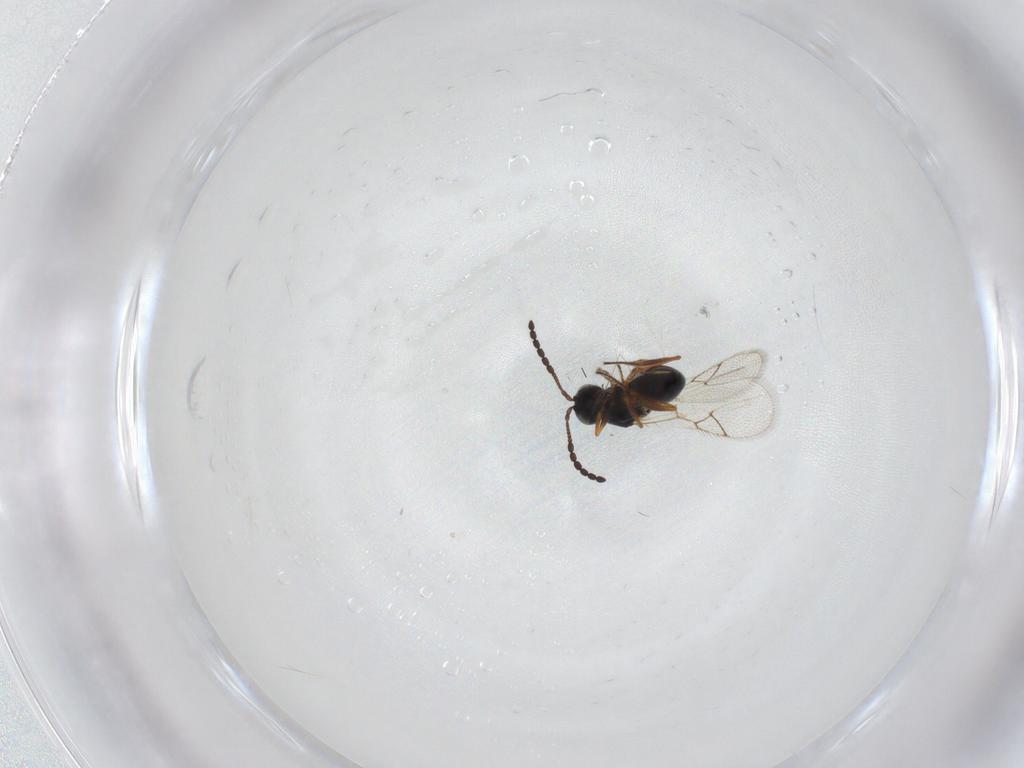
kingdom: Animalia
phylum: Arthropoda
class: Insecta
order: Hymenoptera
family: Figitidae
